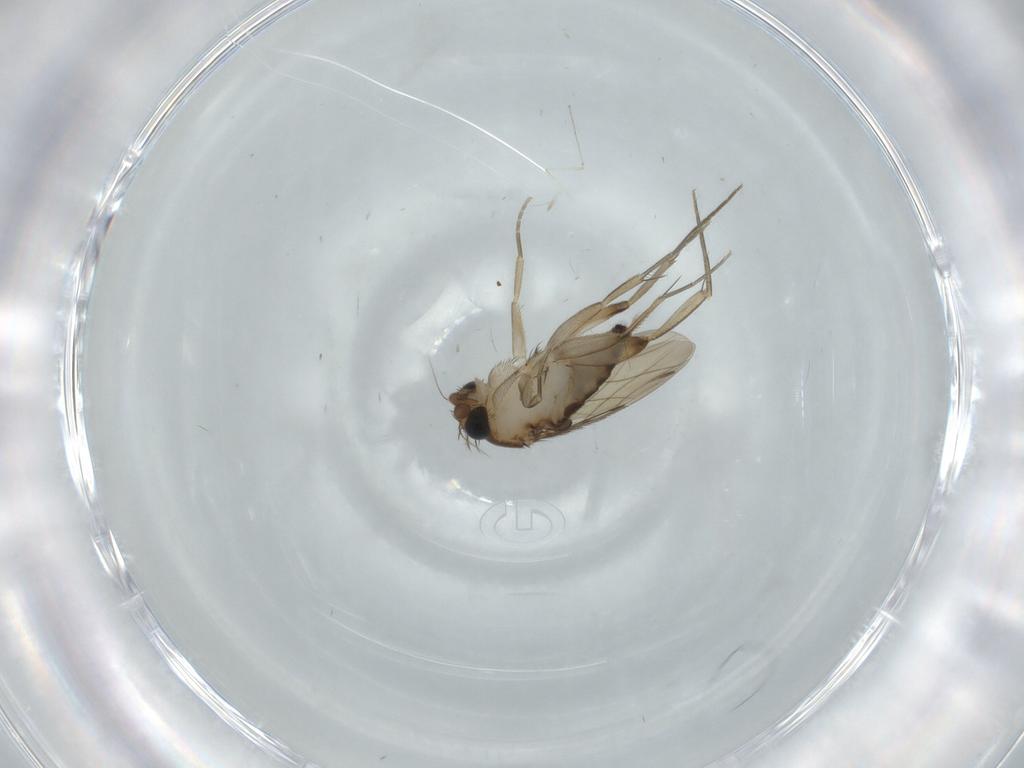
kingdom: Animalia
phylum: Arthropoda
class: Insecta
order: Diptera
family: Phoridae
